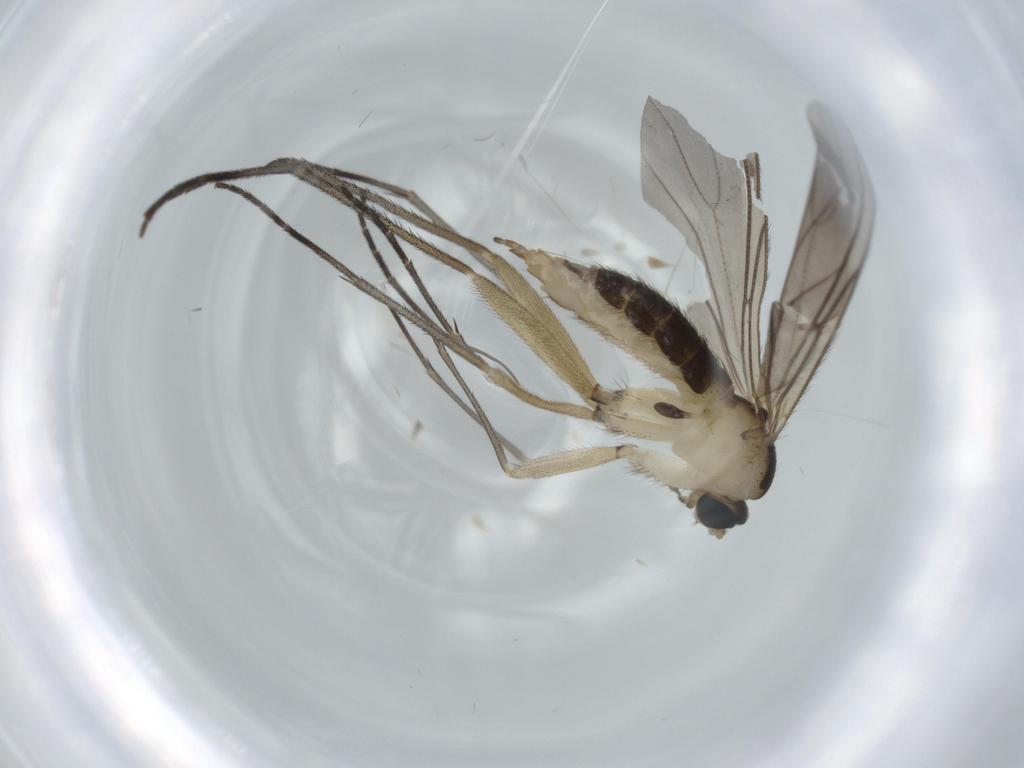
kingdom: Animalia
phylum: Arthropoda
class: Insecta
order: Diptera
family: Sciaridae
